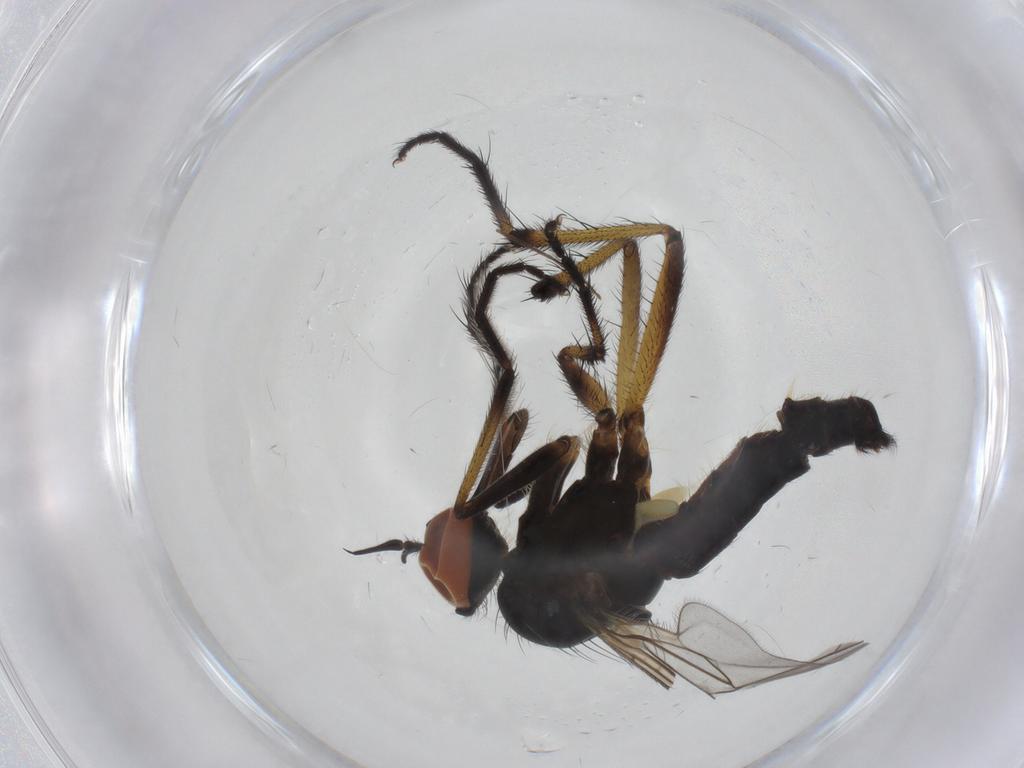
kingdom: Animalia
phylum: Arthropoda
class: Insecta
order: Diptera
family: Empididae
